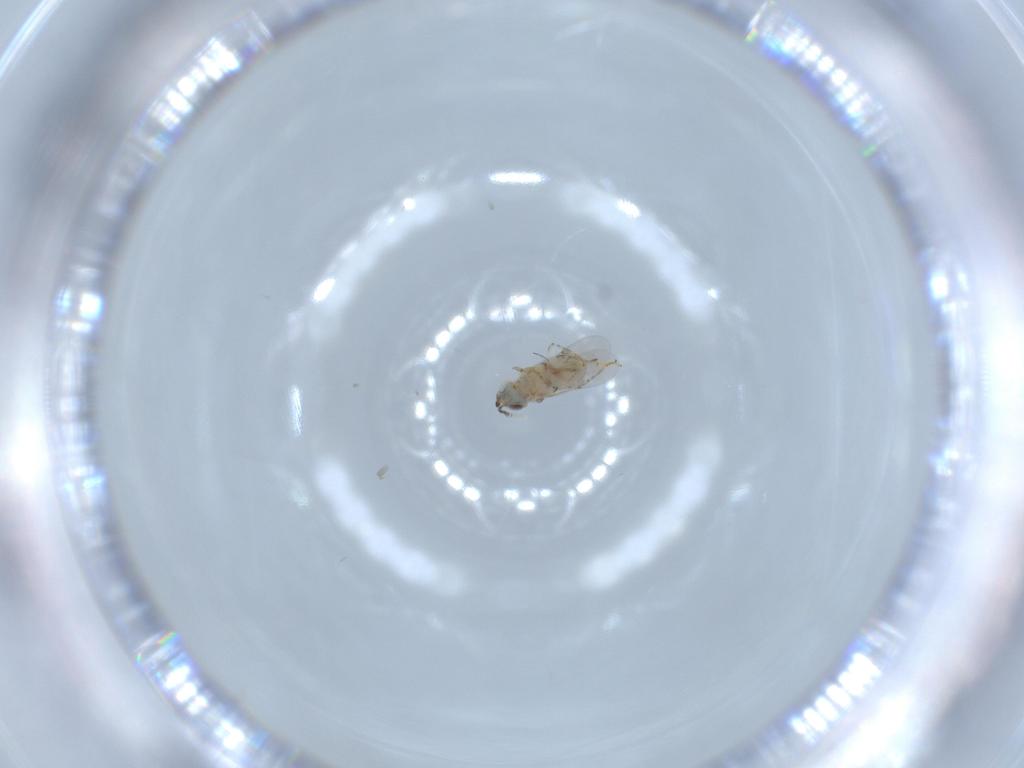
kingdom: Animalia
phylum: Arthropoda
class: Insecta
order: Hymenoptera
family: Encyrtidae
